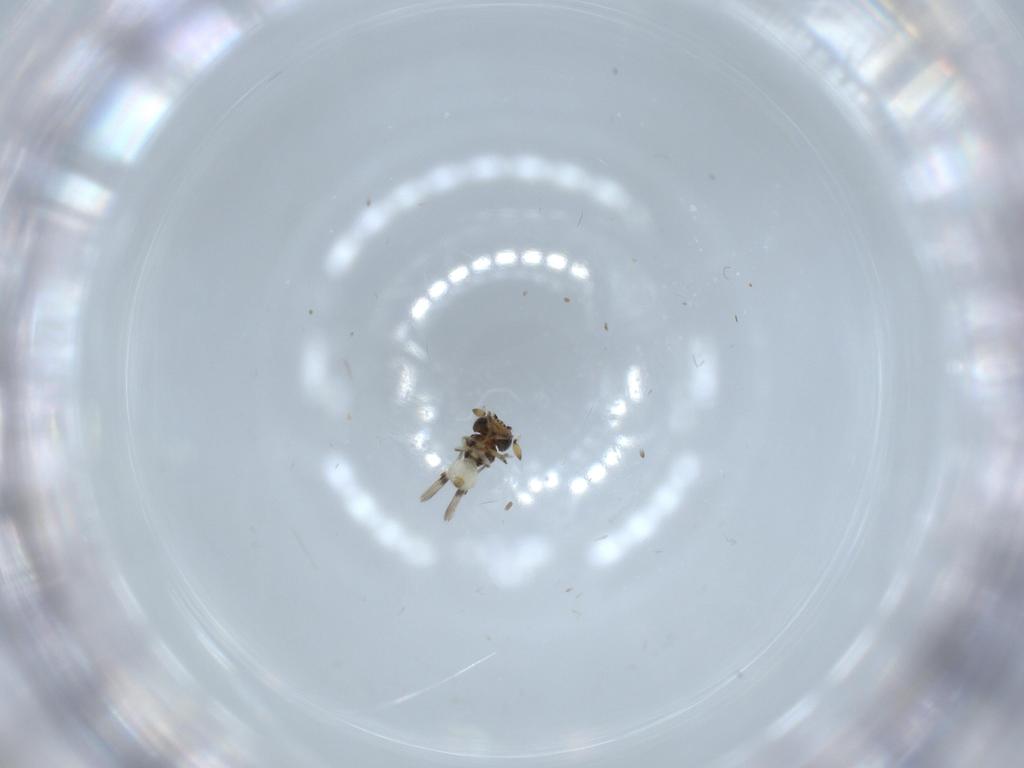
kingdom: Animalia
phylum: Arthropoda
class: Insecta
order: Hymenoptera
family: Scelionidae
